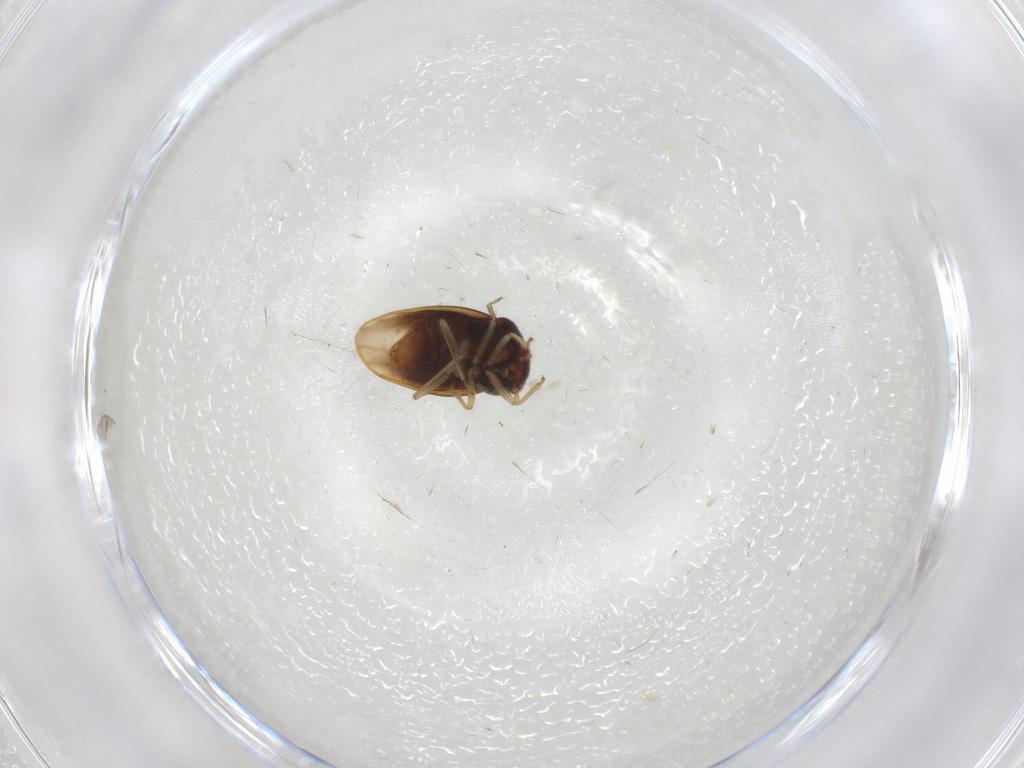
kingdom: Animalia
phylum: Arthropoda
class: Insecta
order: Hemiptera
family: Schizopteridae
